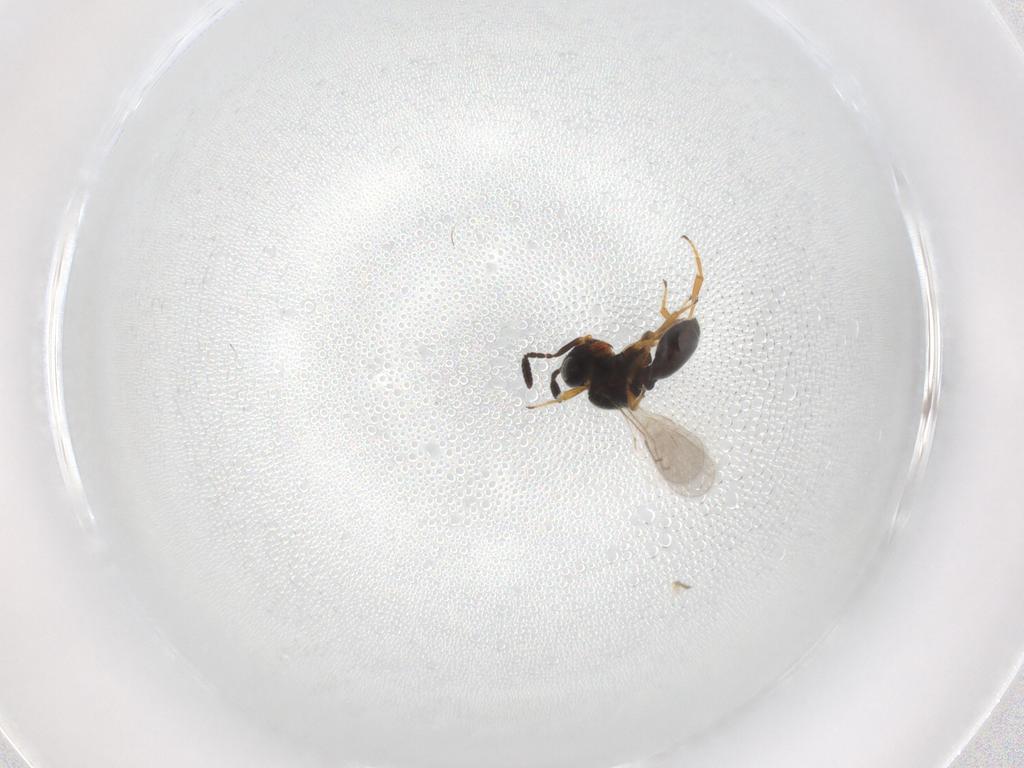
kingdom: Animalia
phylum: Arthropoda
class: Insecta
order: Hymenoptera
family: Scelionidae
